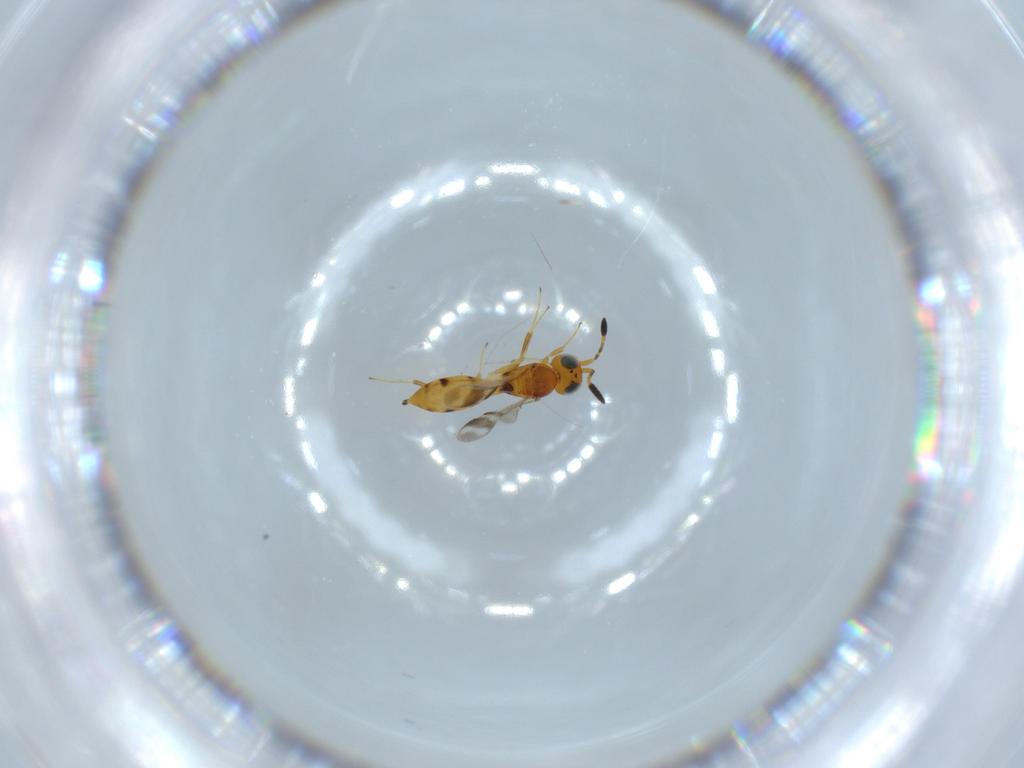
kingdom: Animalia
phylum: Arthropoda
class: Insecta
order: Hymenoptera
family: Scelionidae
